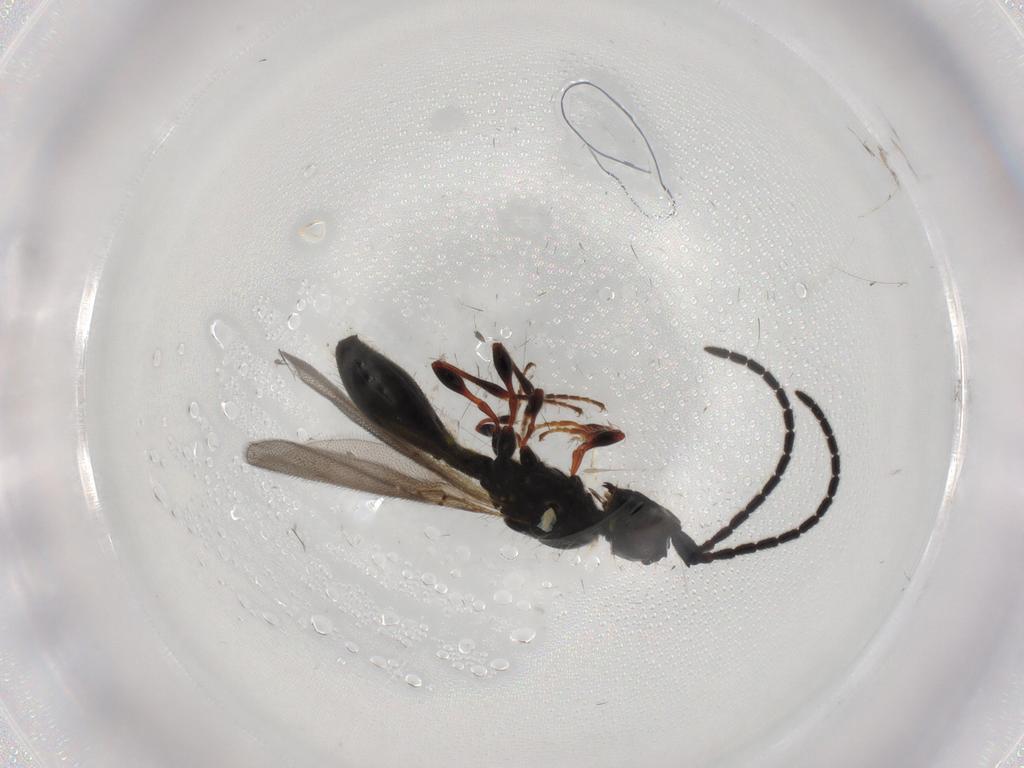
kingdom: Animalia
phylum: Arthropoda
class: Insecta
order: Hymenoptera
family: Diapriidae
